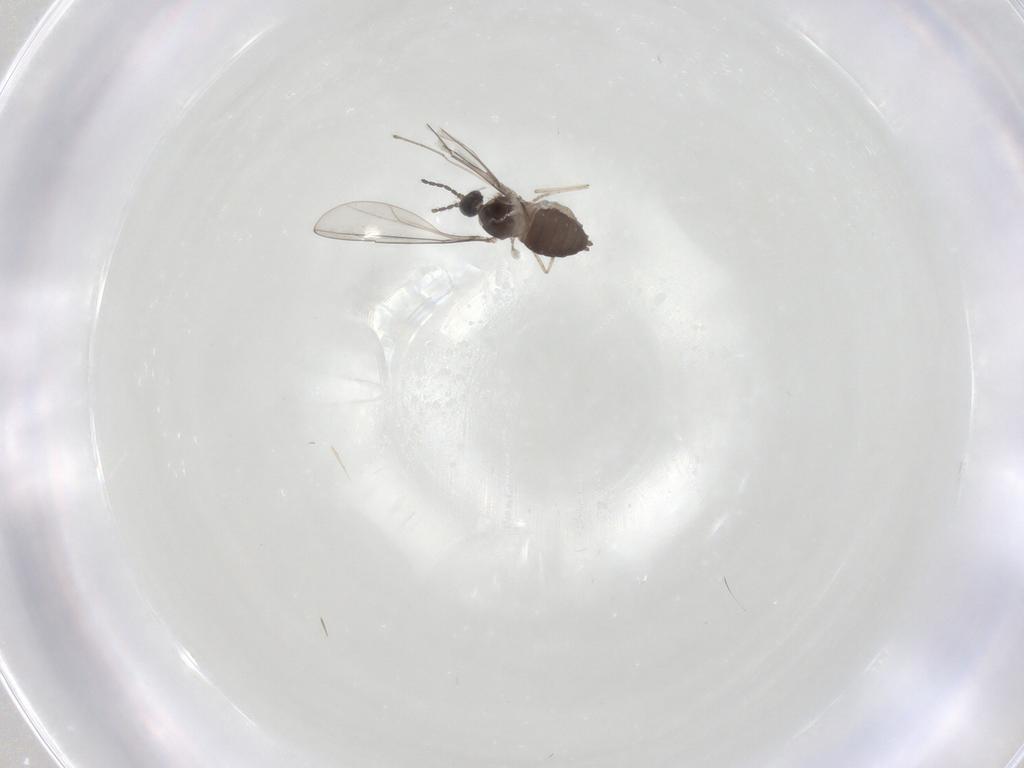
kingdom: Animalia
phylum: Arthropoda
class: Insecta
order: Diptera
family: Cecidomyiidae
